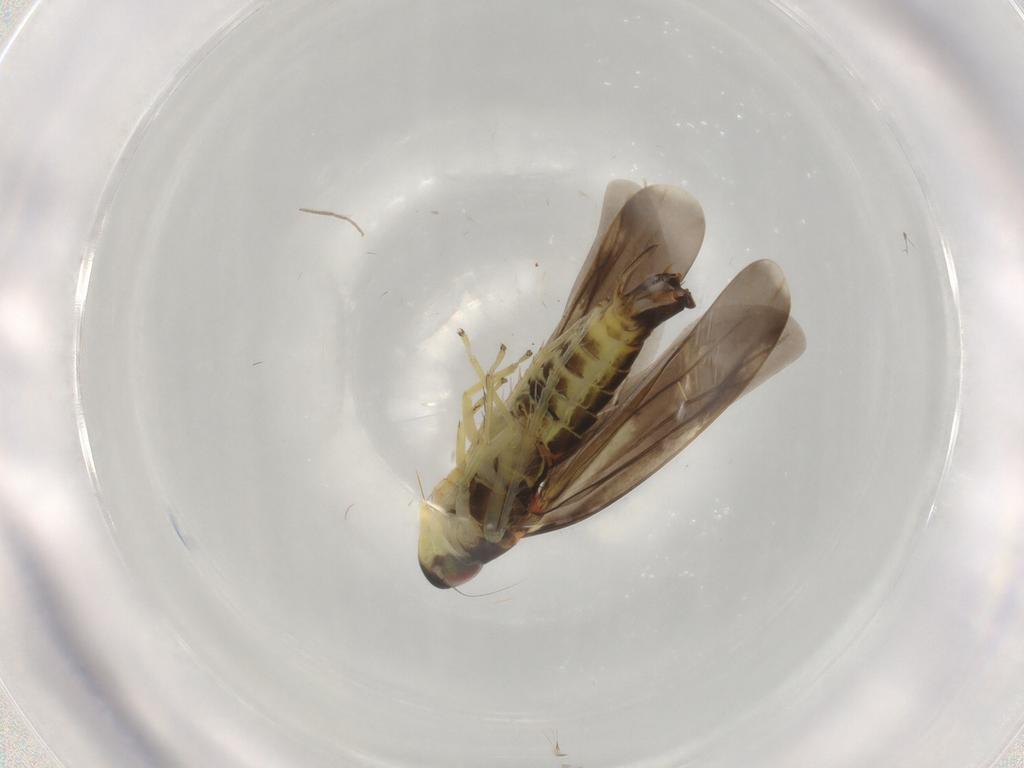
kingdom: Animalia
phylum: Arthropoda
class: Insecta
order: Hemiptera
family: Cicadellidae
